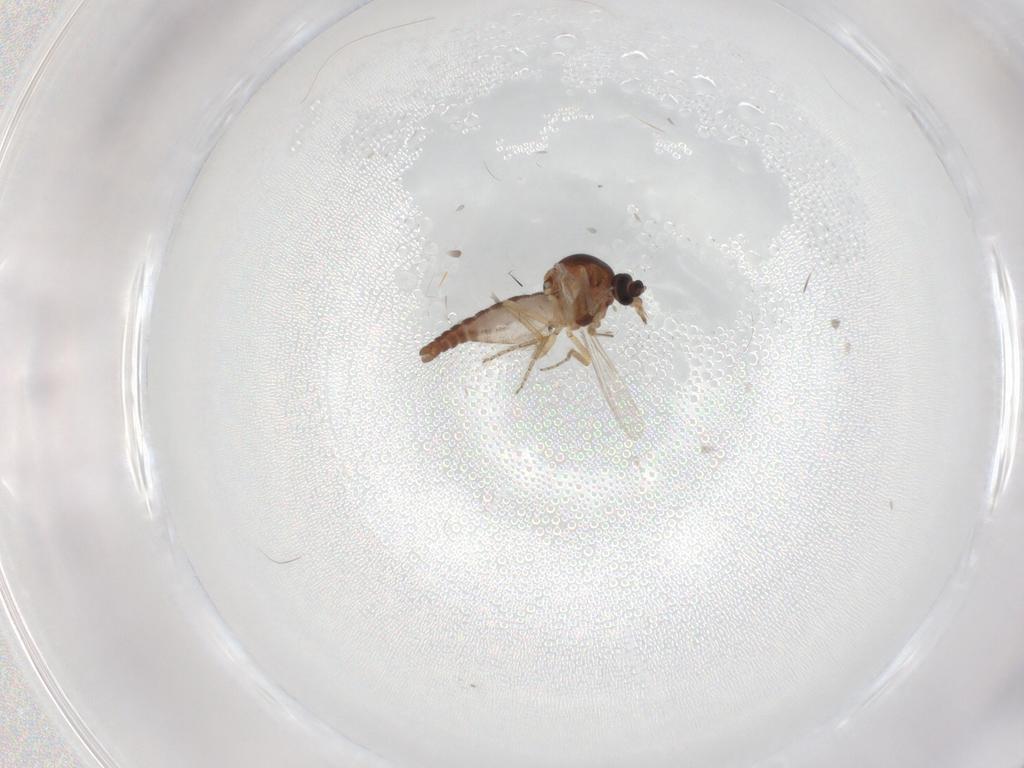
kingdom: Animalia
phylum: Arthropoda
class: Insecta
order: Diptera
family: Ceratopogonidae
